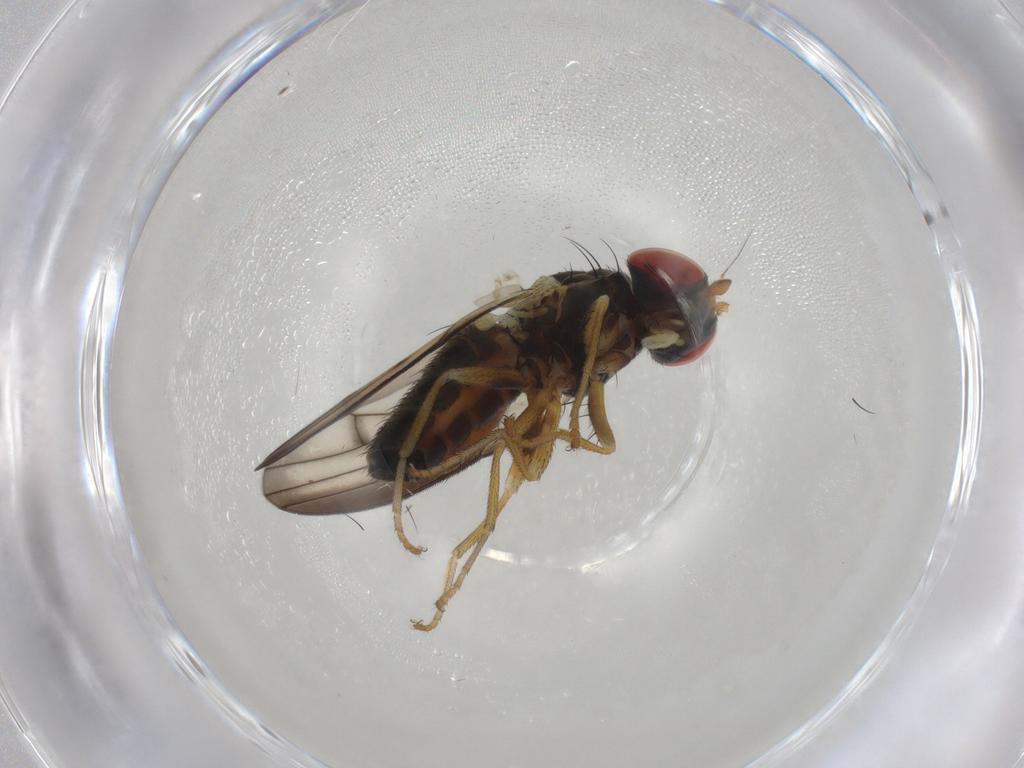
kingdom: Animalia
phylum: Arthropoda
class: Insecta
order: Diptera
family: Chamaemyiidae
